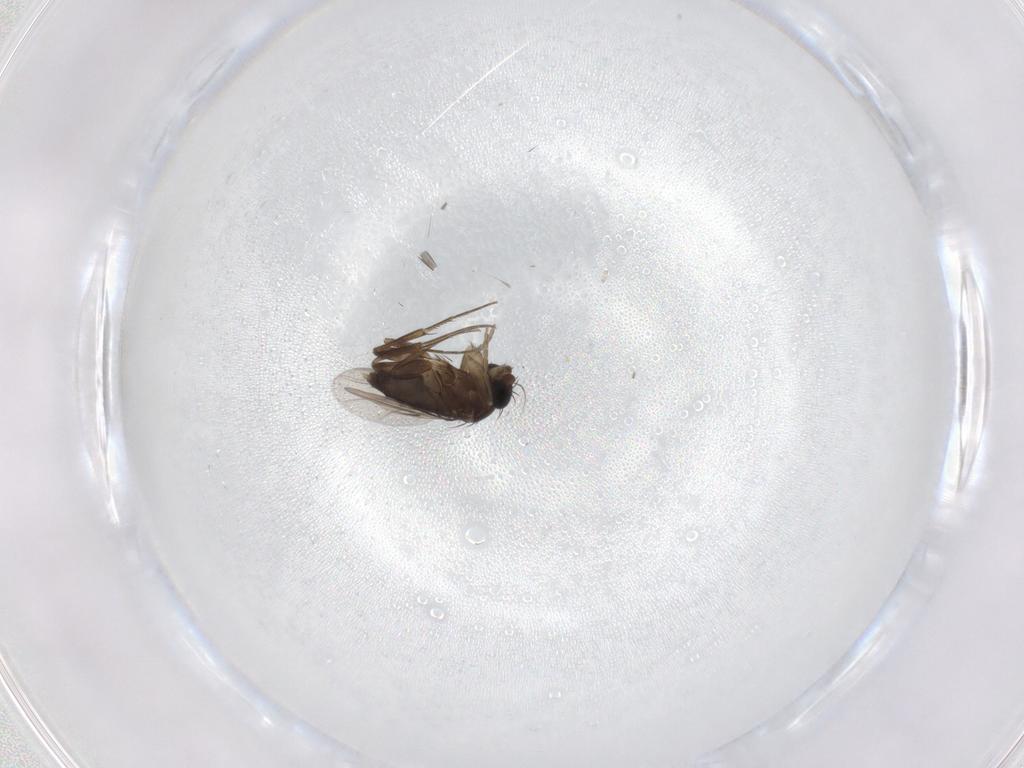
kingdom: Animalia
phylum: Arthropoda
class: Insecta
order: Diptera
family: Phoridae
